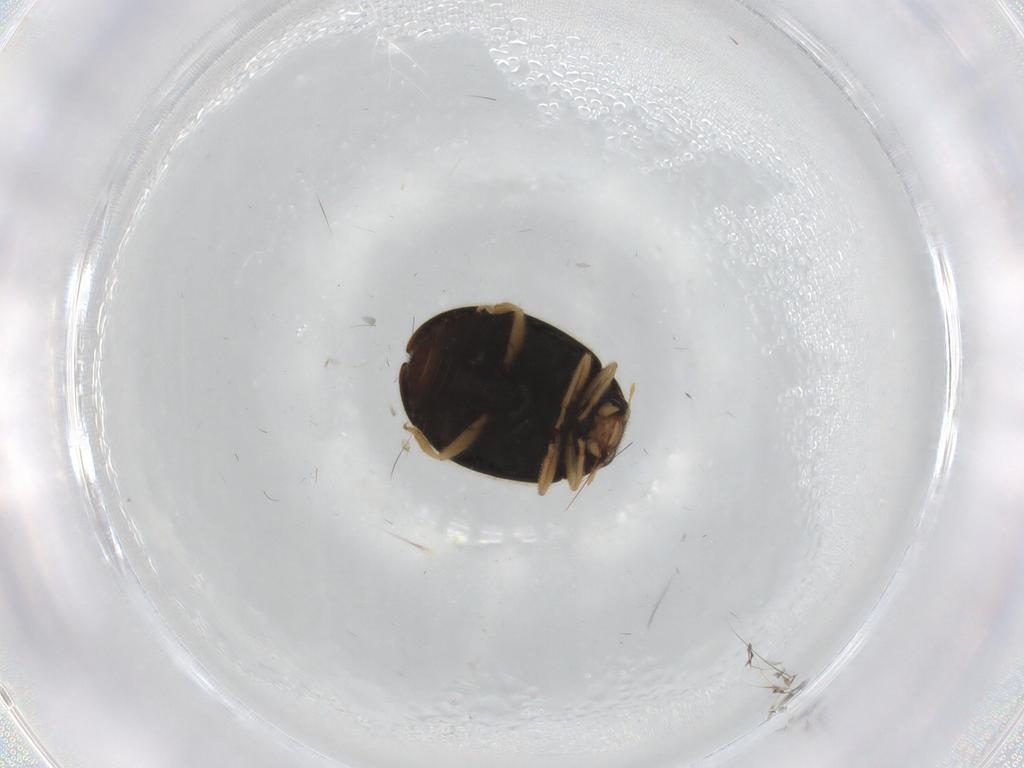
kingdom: Animalia
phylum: Arthropoda
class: Insecta
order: Coleoptera
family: Coccinellidae
